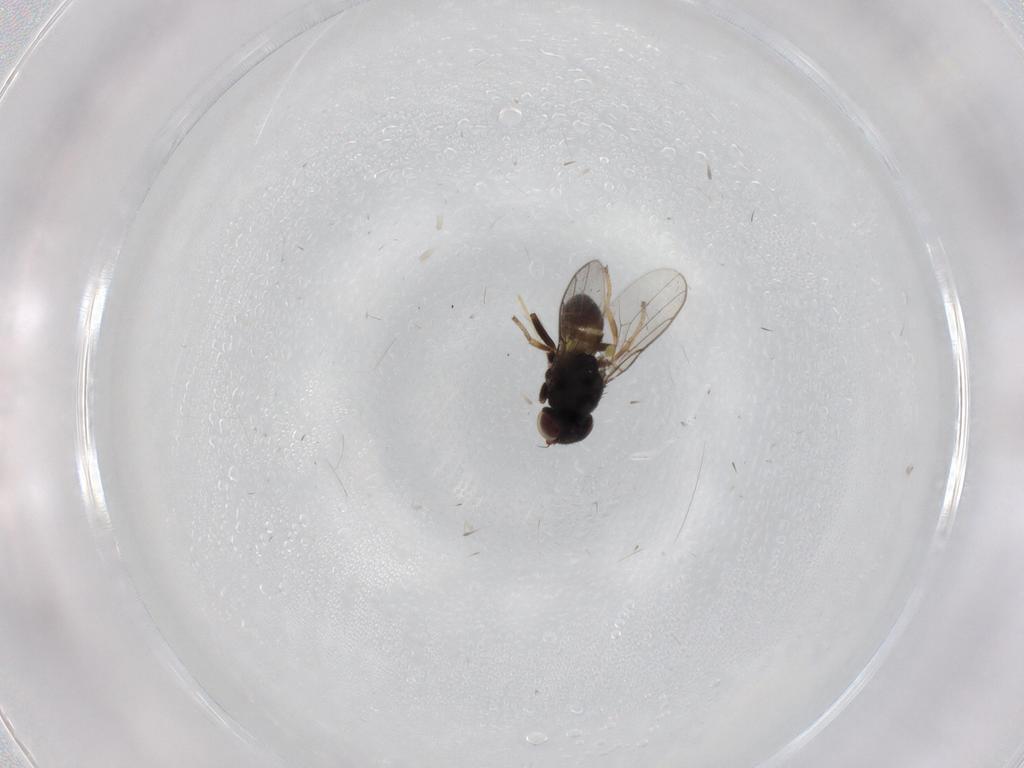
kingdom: Animalia
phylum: Arthropoda
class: Insecta
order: Diptera
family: Chloropidae
